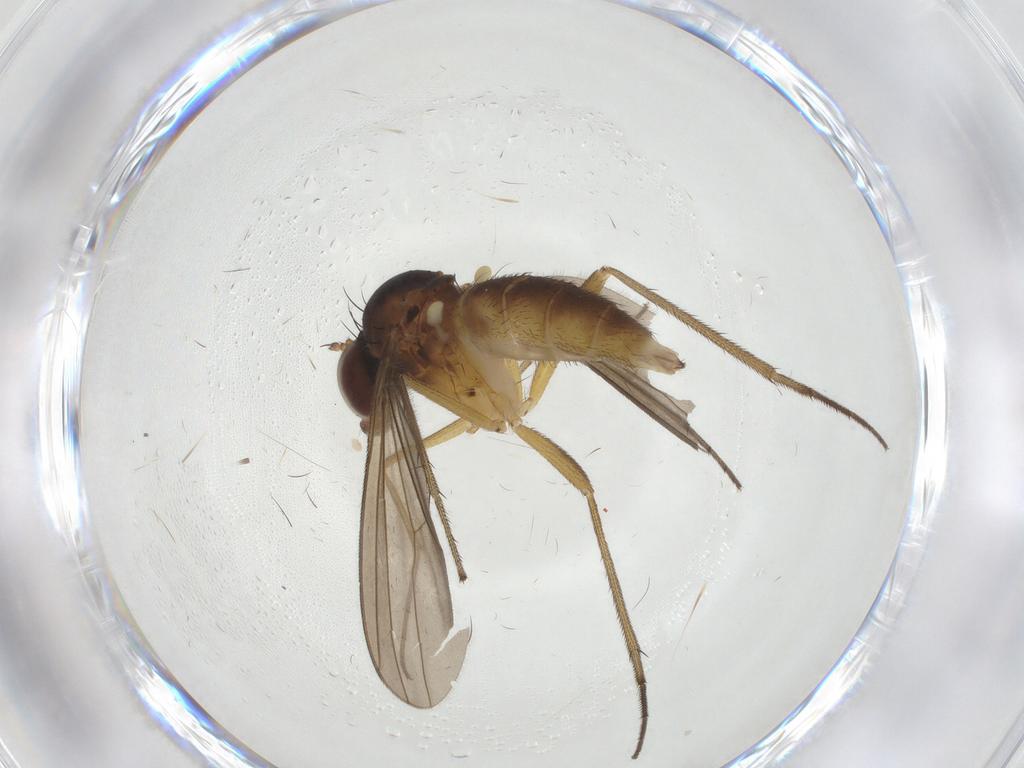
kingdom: Animalia
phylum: Arthropoda
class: Insecta
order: Diptera
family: Dolichopodidae
